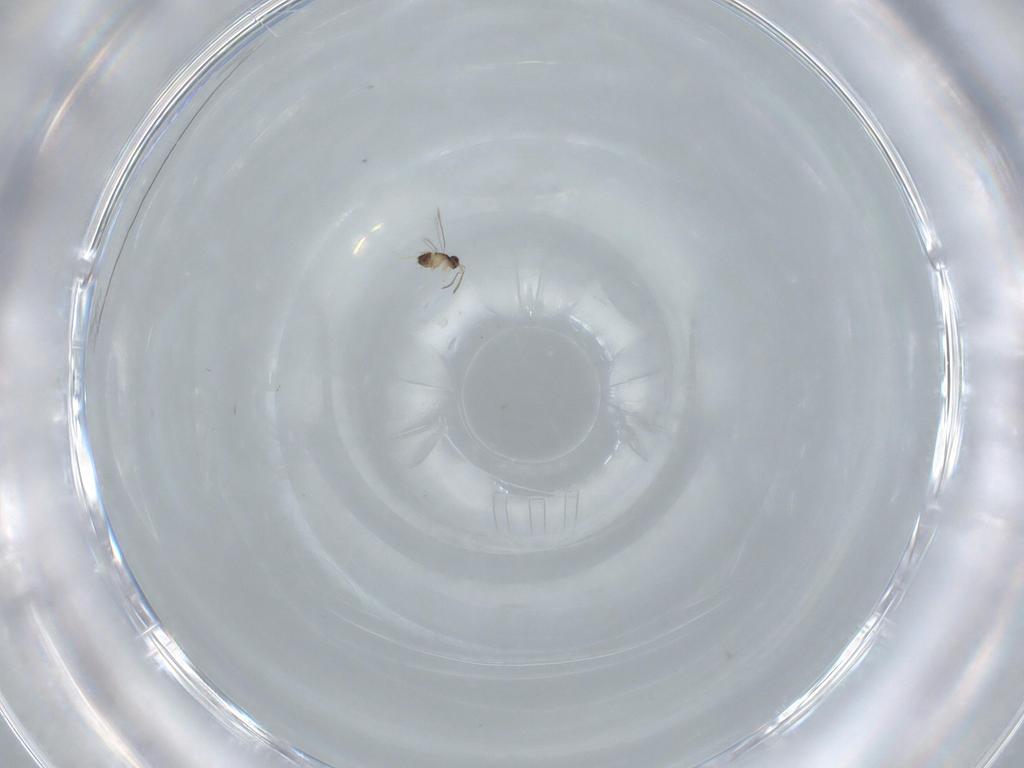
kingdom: Animalia
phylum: Arthropoda
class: Insecta
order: Hymenoptera
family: Mymaridae
